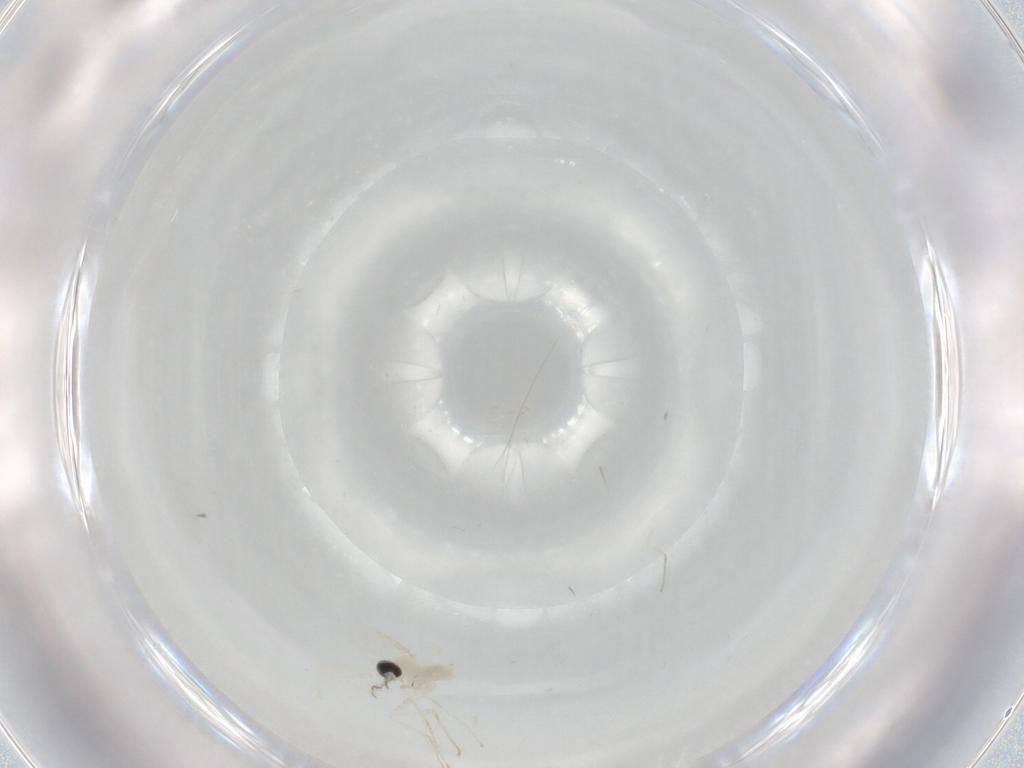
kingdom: Animalia
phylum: Arthropoda
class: Insecta
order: Diptera
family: Cecidomyiidae
